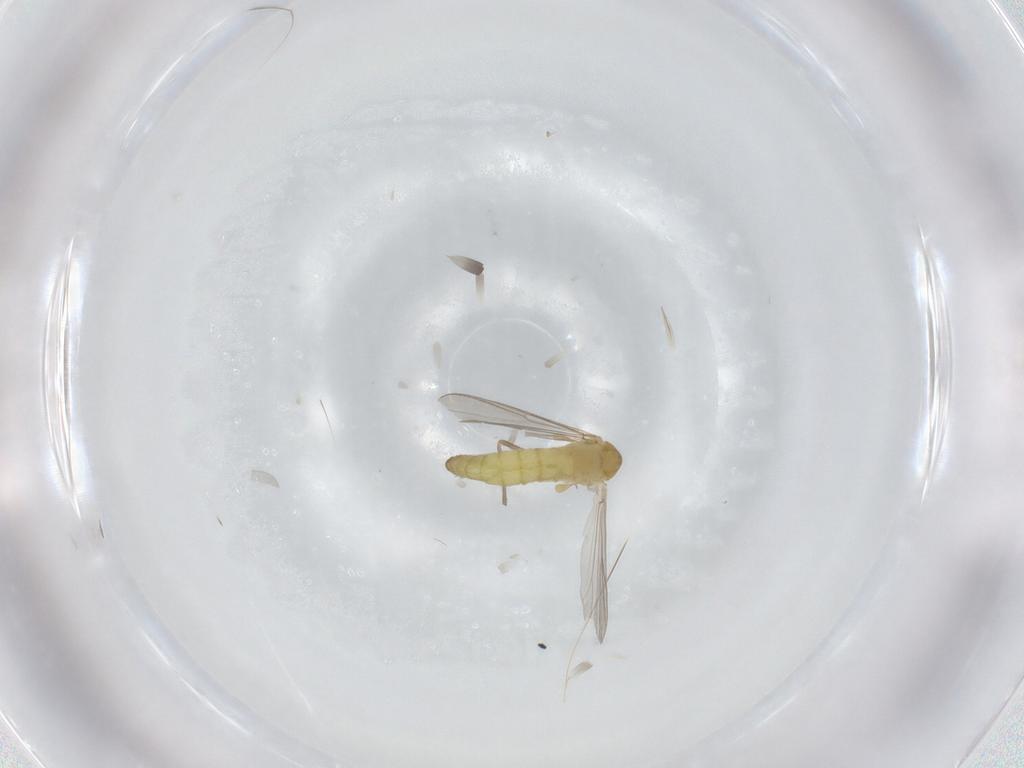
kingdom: Animalia
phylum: Arthropoda
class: Insecta
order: Diptera
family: Chironomidae
